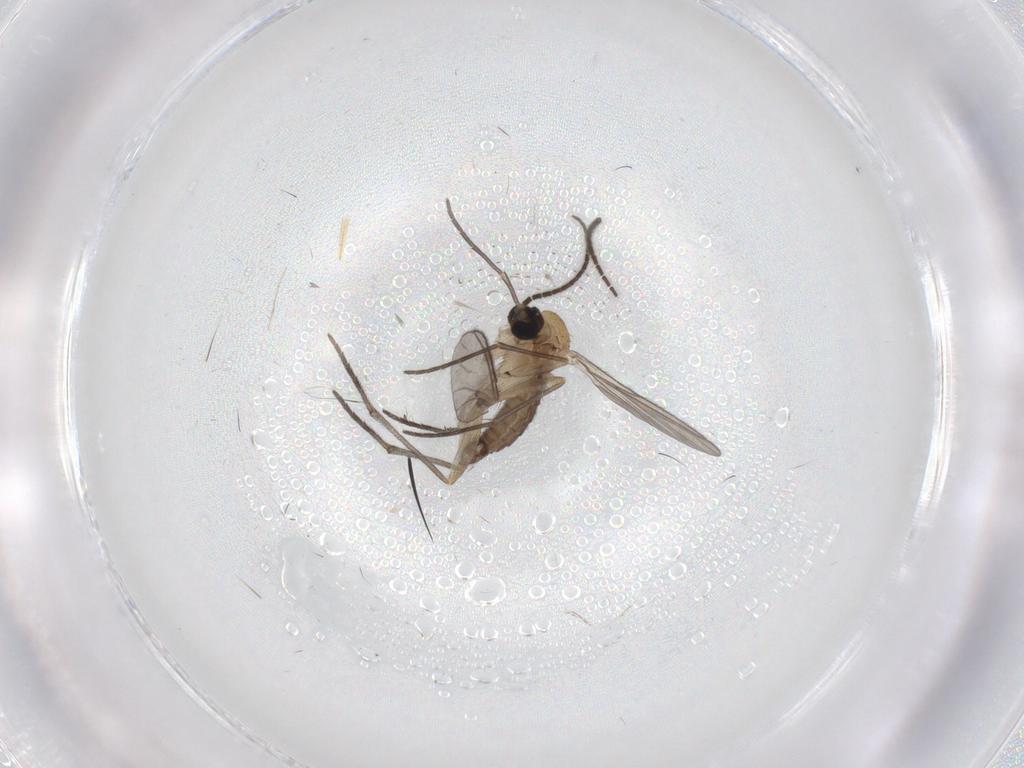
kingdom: Animalia
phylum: Arthropoda
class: Insecta
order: Diptera
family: Sciaridae
